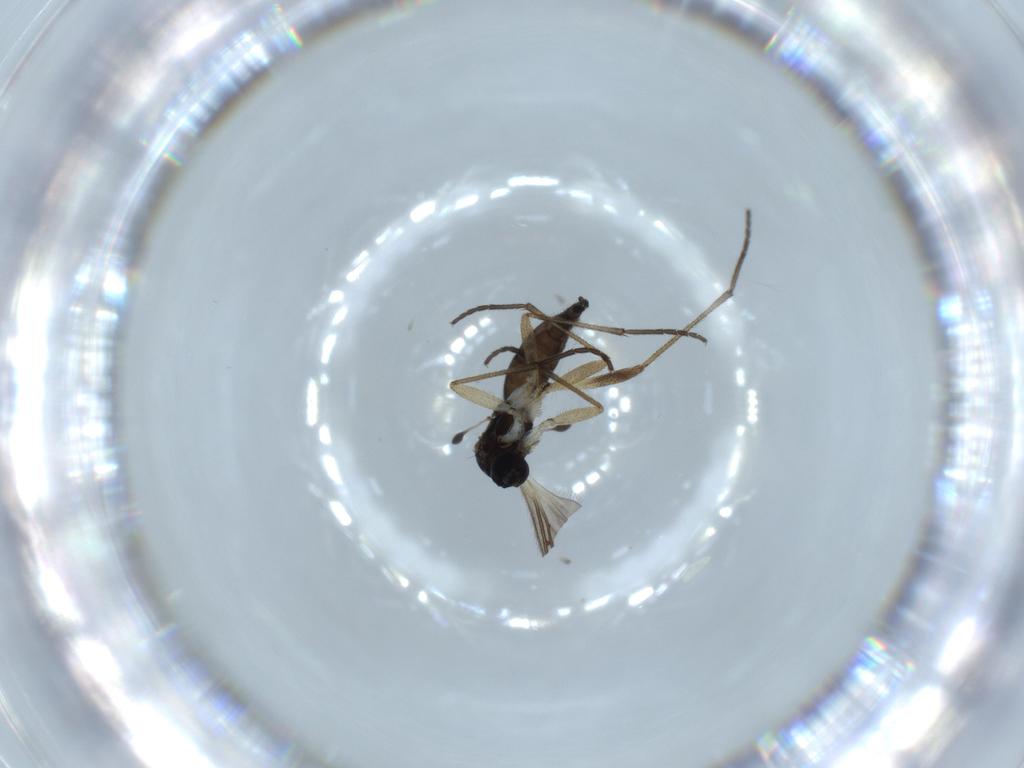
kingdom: Animalia
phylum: Arthropoda
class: Insecta
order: Diptera
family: Sciaridae
